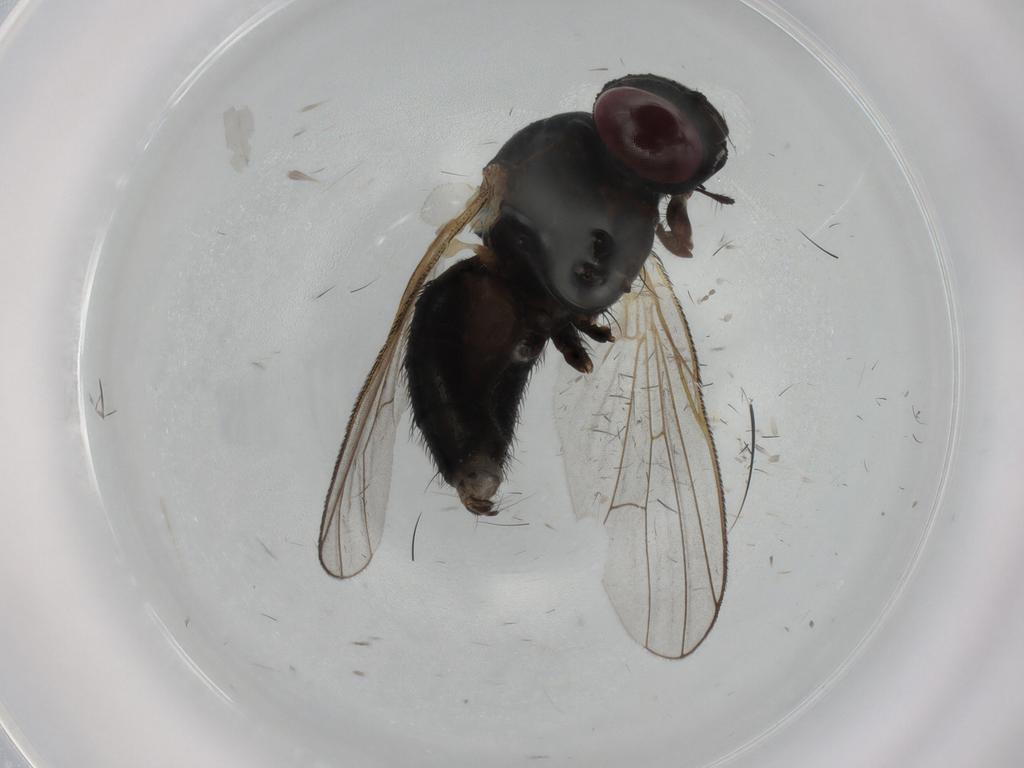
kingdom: Animalia
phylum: Arthropoda
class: Insecta
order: Diptera
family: Fannia
